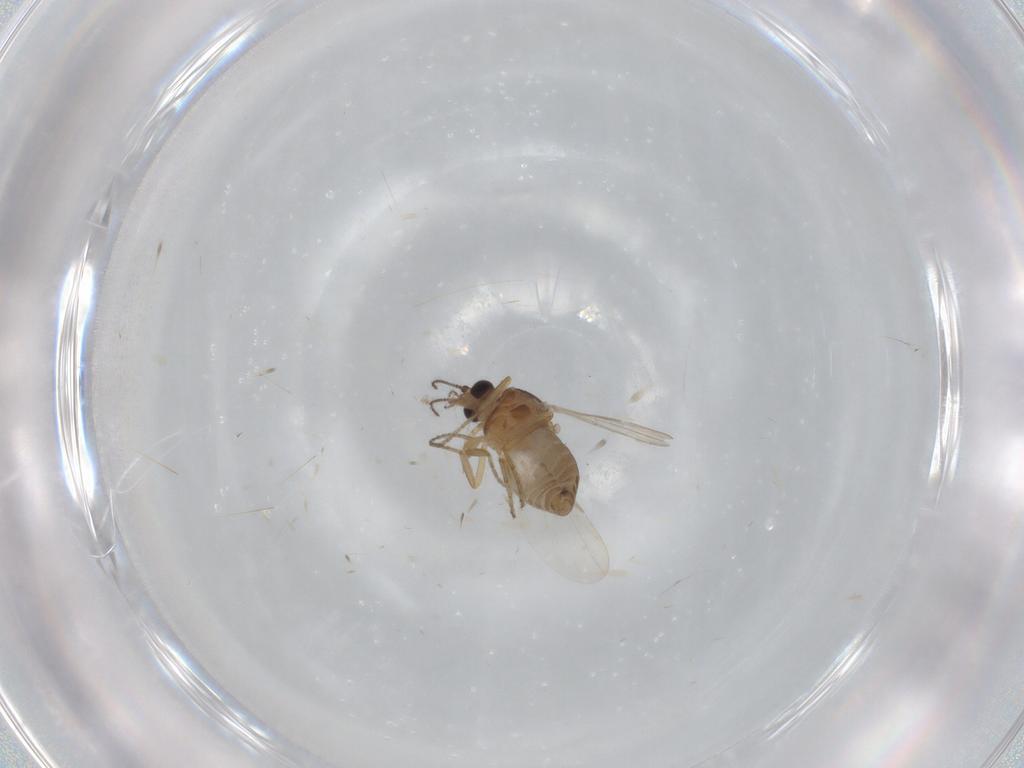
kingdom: Animalia
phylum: Arthropoda
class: Insecta
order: Diptera
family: Ceratopogonidae
